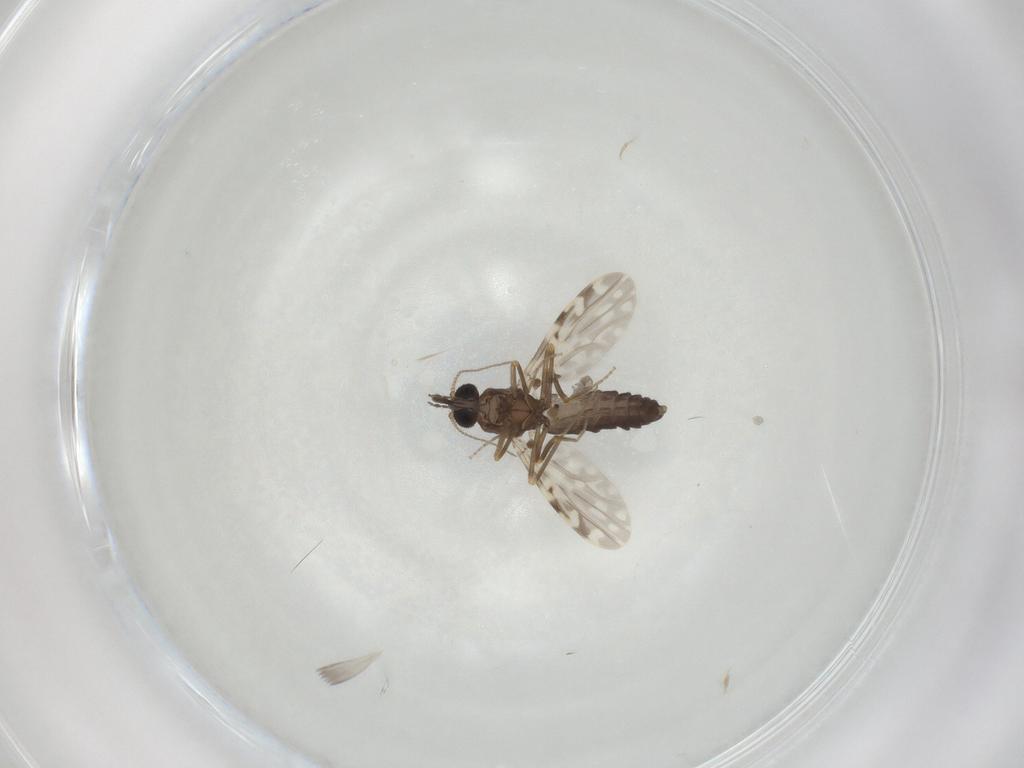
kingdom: Animalia
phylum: Arthropoda
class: Insecta
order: Diptera
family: Ceratopogonidae
